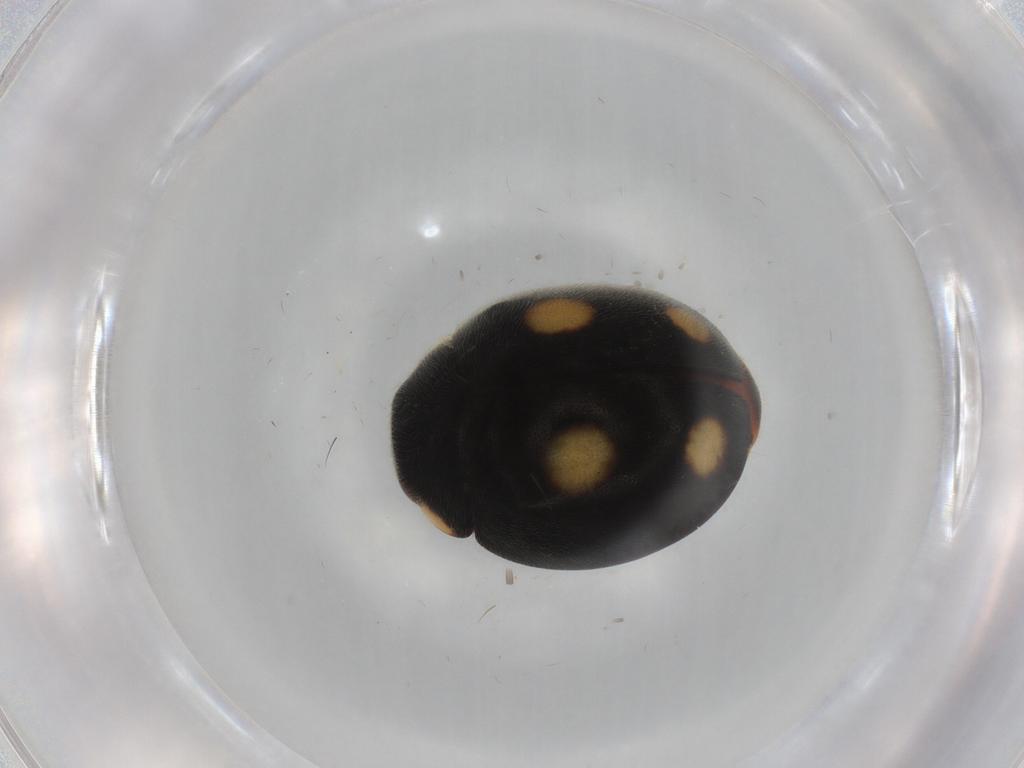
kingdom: Animalia
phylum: Arthropoda
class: Insecta
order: Coleoptera
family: Coccinellidae
